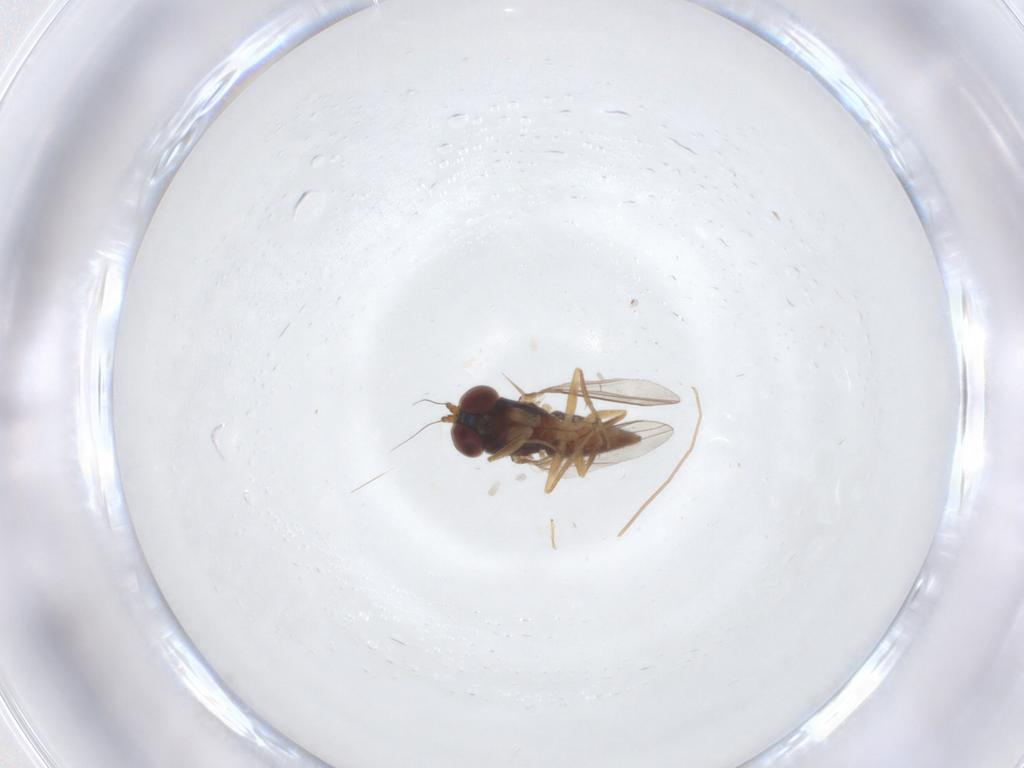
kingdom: Animalia
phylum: Arthropoda
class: Insecta
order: Diptera
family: Dolichopodidae
